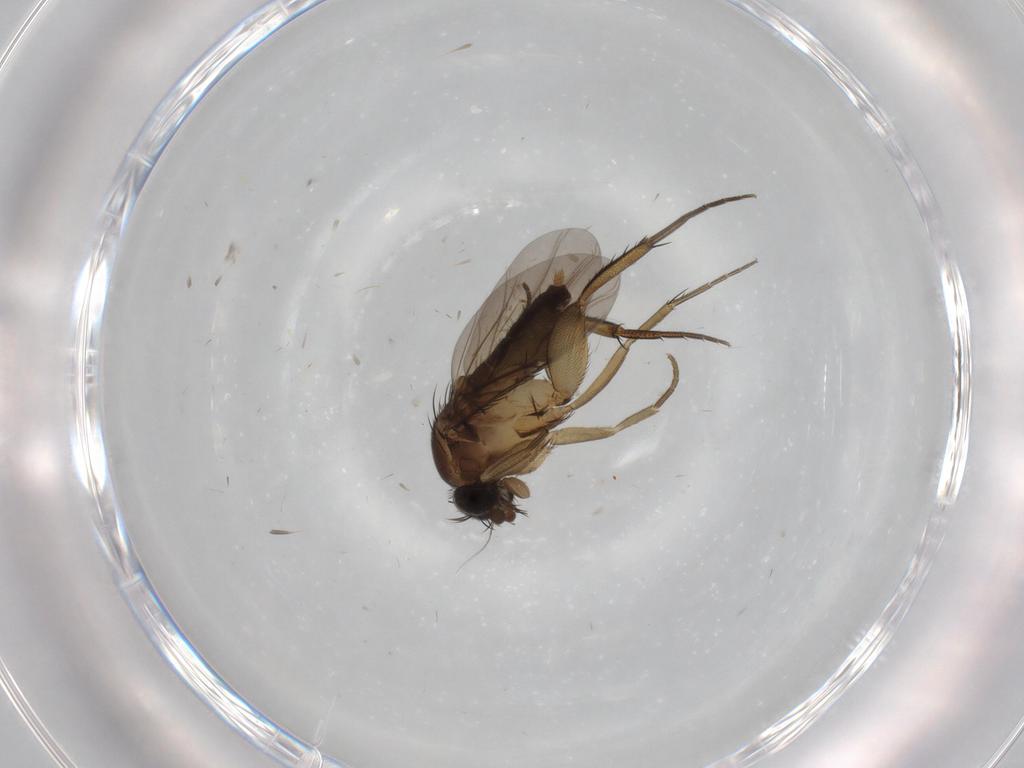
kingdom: Animalia
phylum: Arthropoda
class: Insecta
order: Diptera
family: Phoridae
